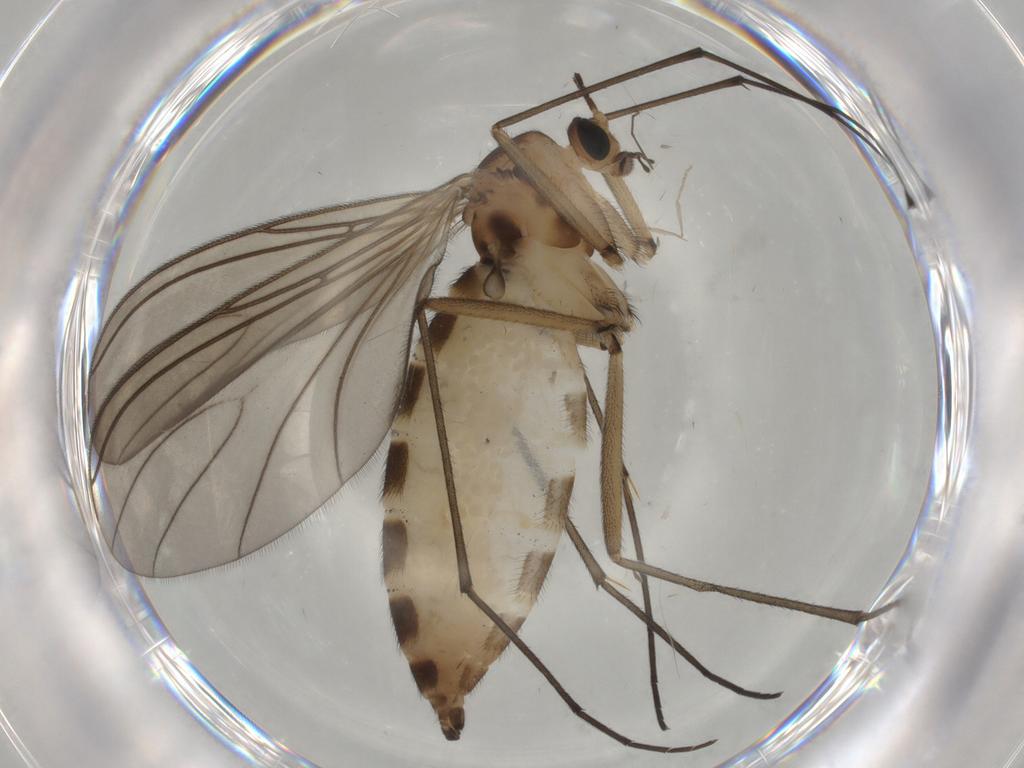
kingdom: Animalia
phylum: Arthropoda
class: Insecta
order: Diptera
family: Sciaridae
